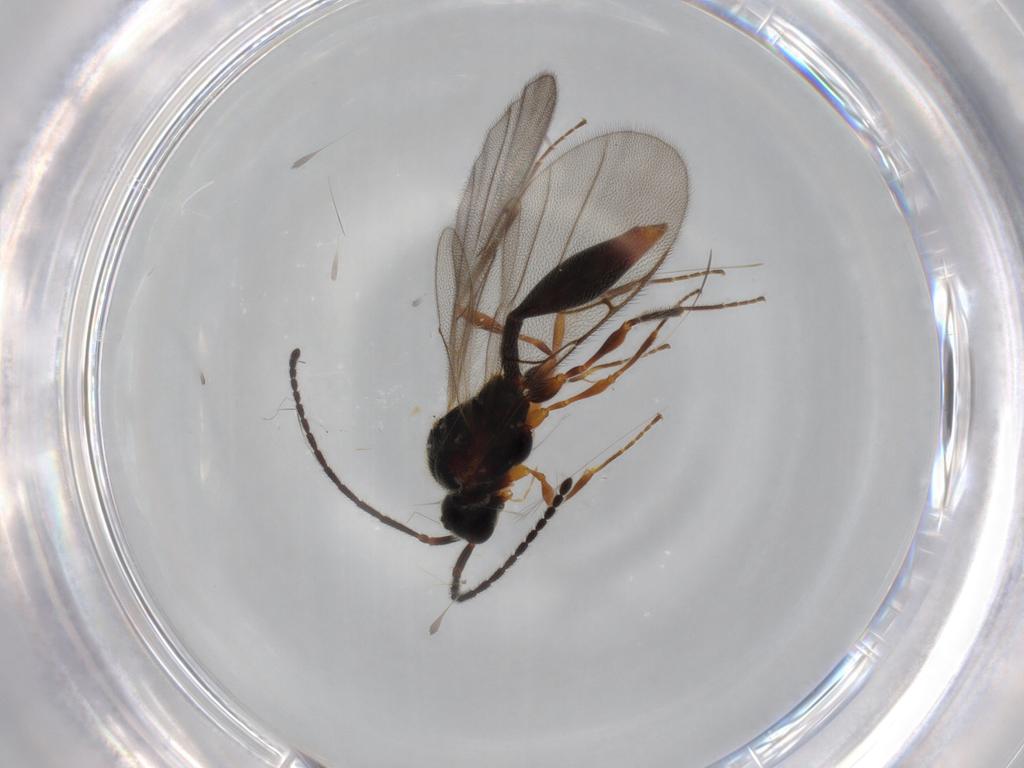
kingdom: Animalia
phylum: Arthropoda
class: Insecta
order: Hymenoptera
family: Diapriidae
